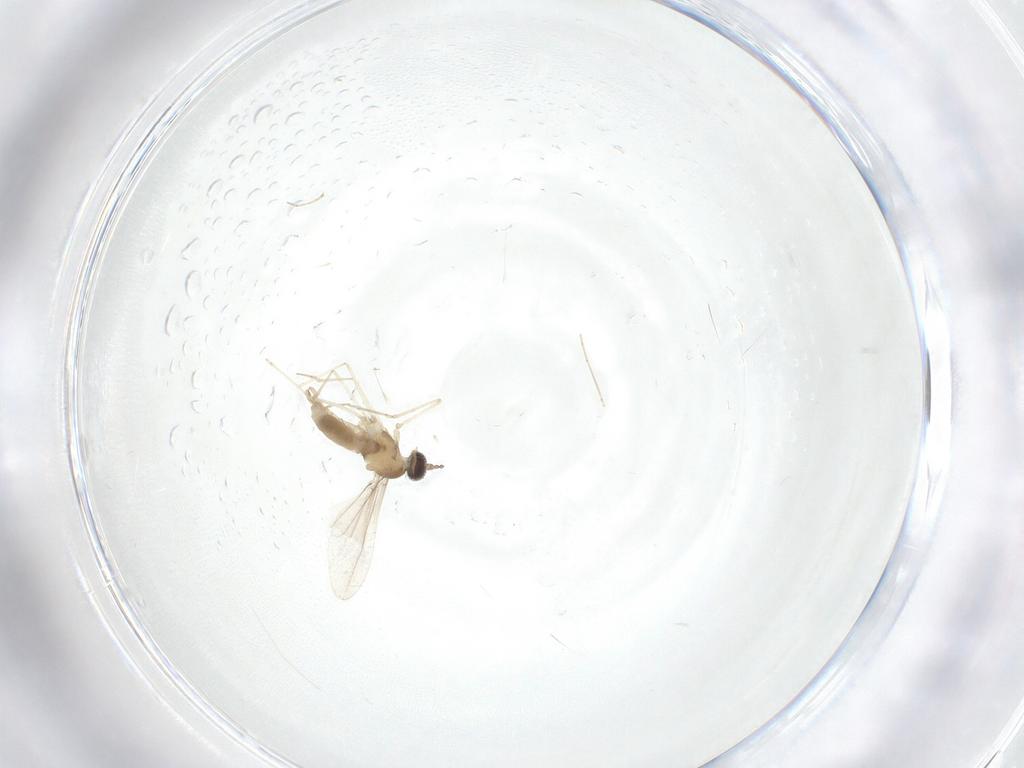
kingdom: Animalia
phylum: Arthropoda
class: Insecta
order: Diptera
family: Cecidomyiidae
